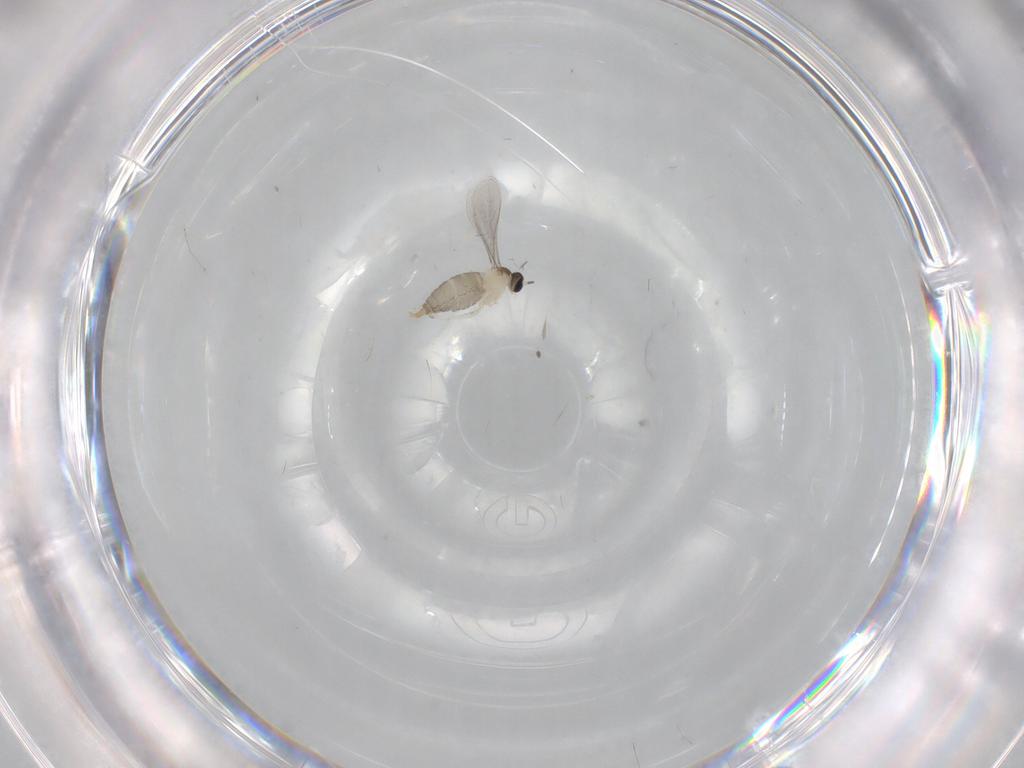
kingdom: Animalia
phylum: Arthropoda
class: Insecta
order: Diptera
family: Cecidomyiidae
